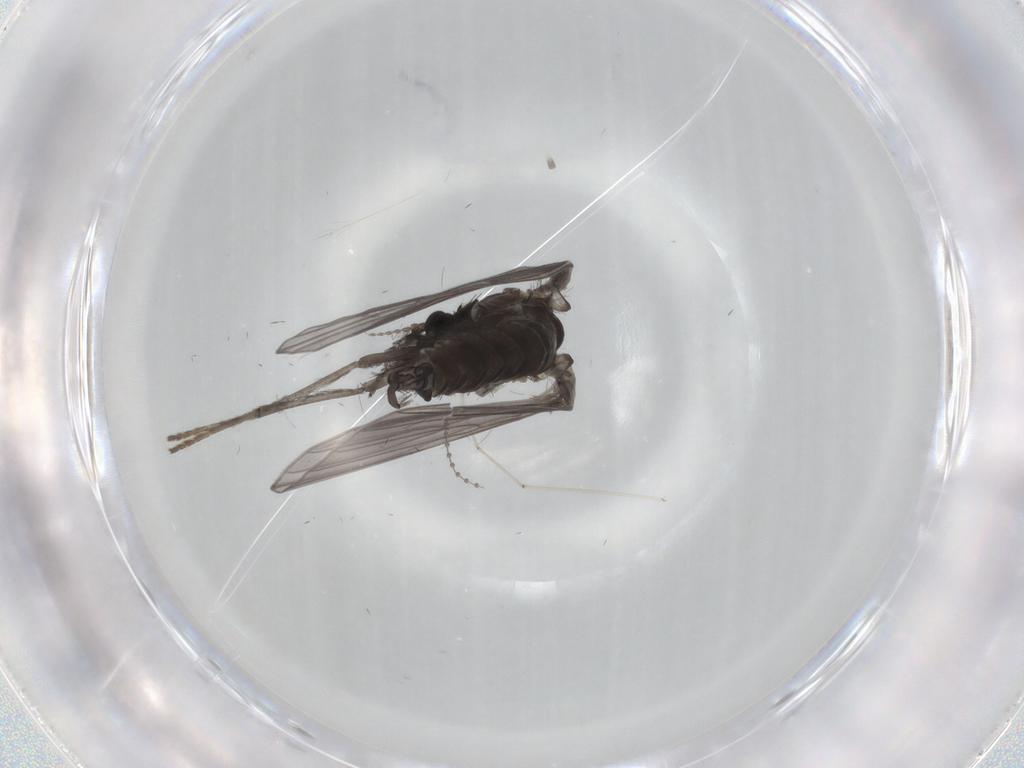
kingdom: Animalia
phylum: Arthropoda
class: Insecta
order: Diptera
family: Psychodidae
